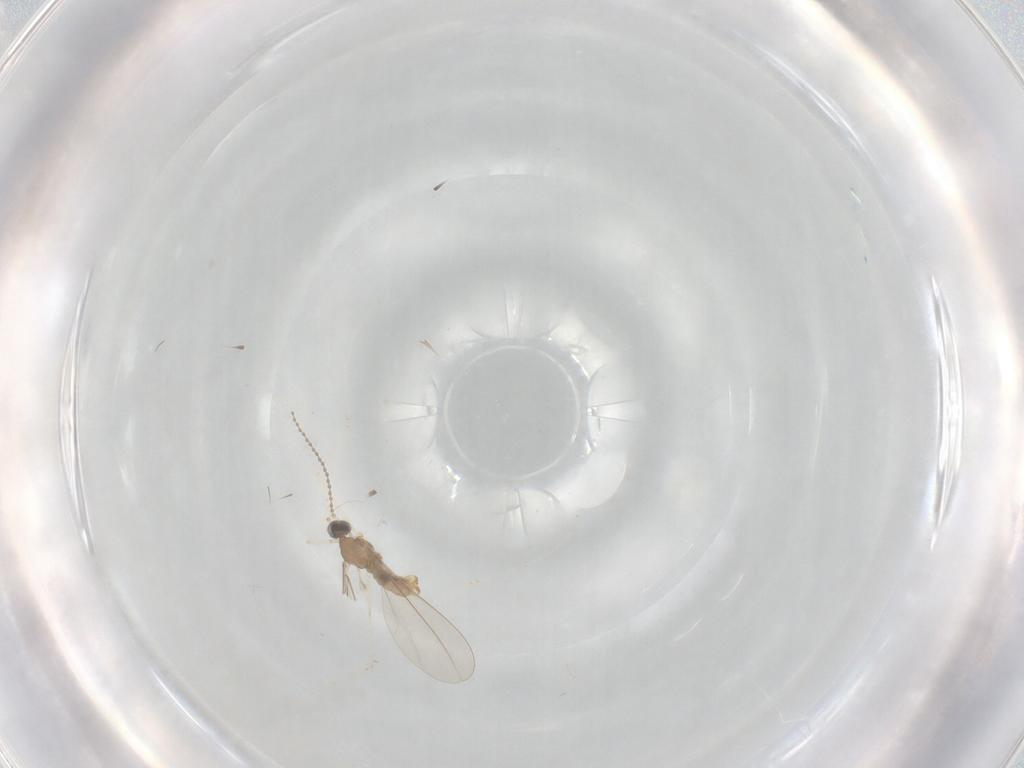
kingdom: Animalia
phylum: Arthropoda
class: Insecta
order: Diptera
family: Cecidomyiidae
